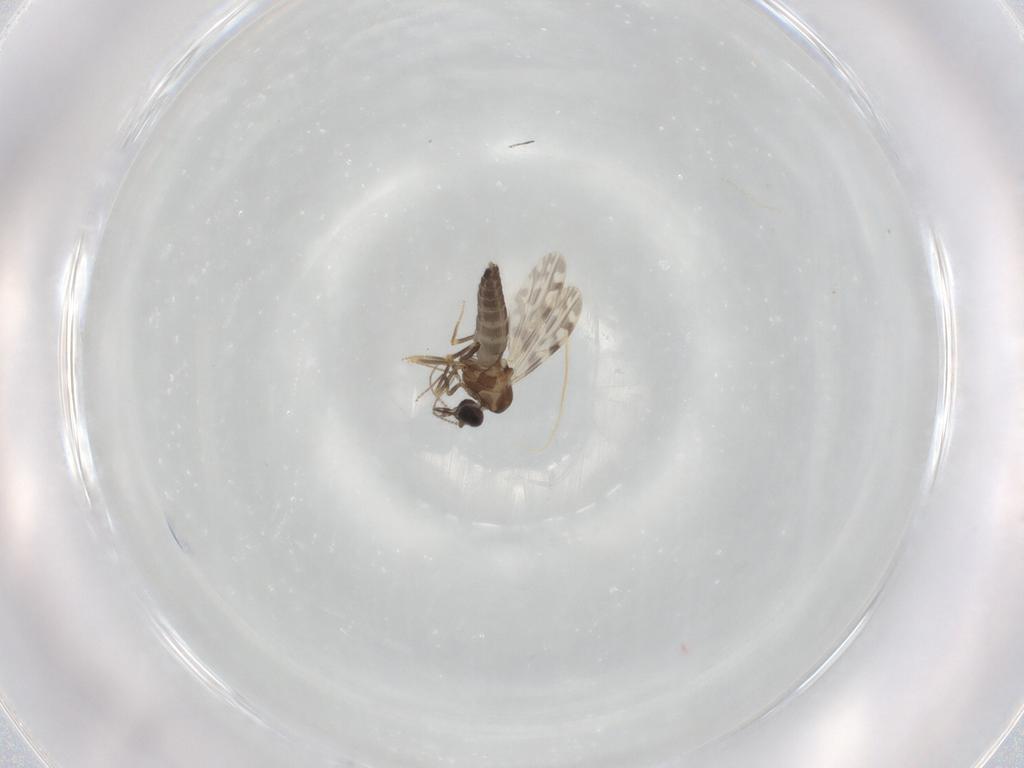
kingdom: Animalia
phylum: Arthropoda
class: Insecta
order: Diptera
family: Ceratopogonidae
